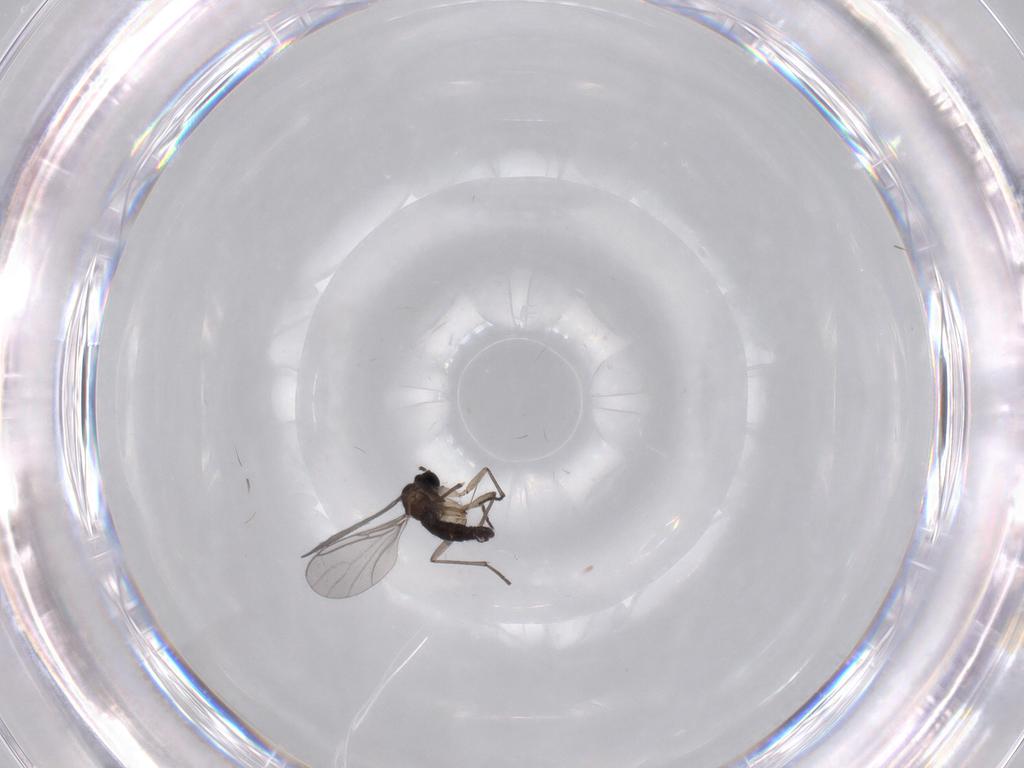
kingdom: Animalia
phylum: Arthropoda
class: Insecta
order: Diptera
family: Sciaridae
